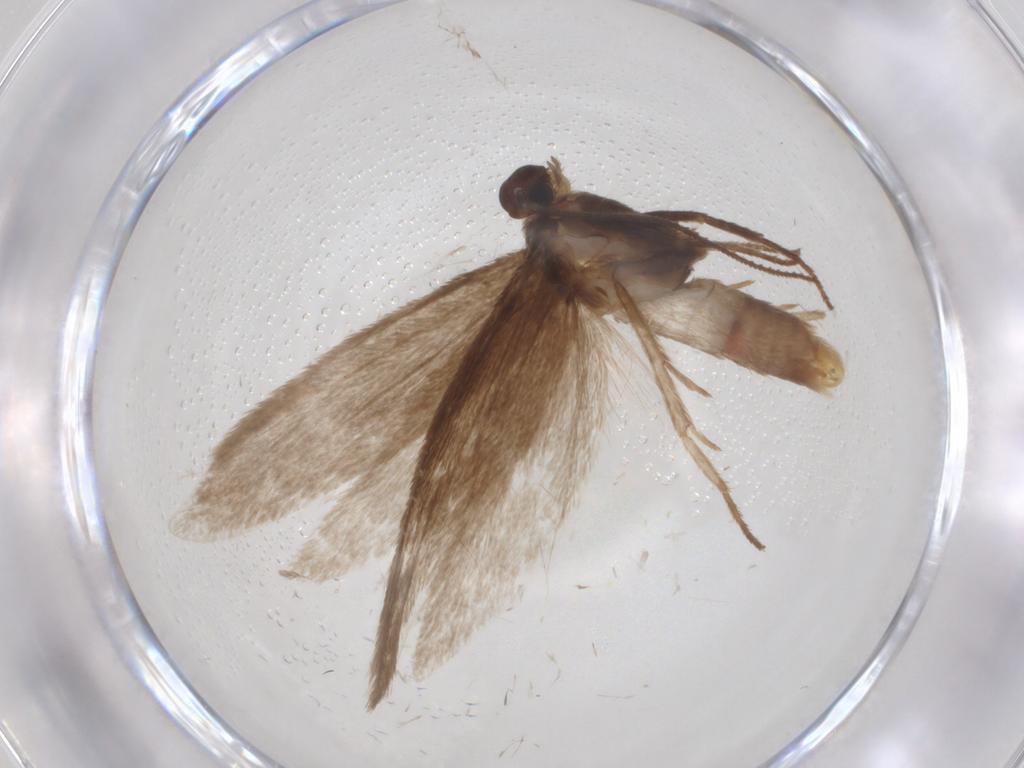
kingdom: Animalia
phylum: Arthropoda
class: Insecta
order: Lepidoptera
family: Limacodidae
